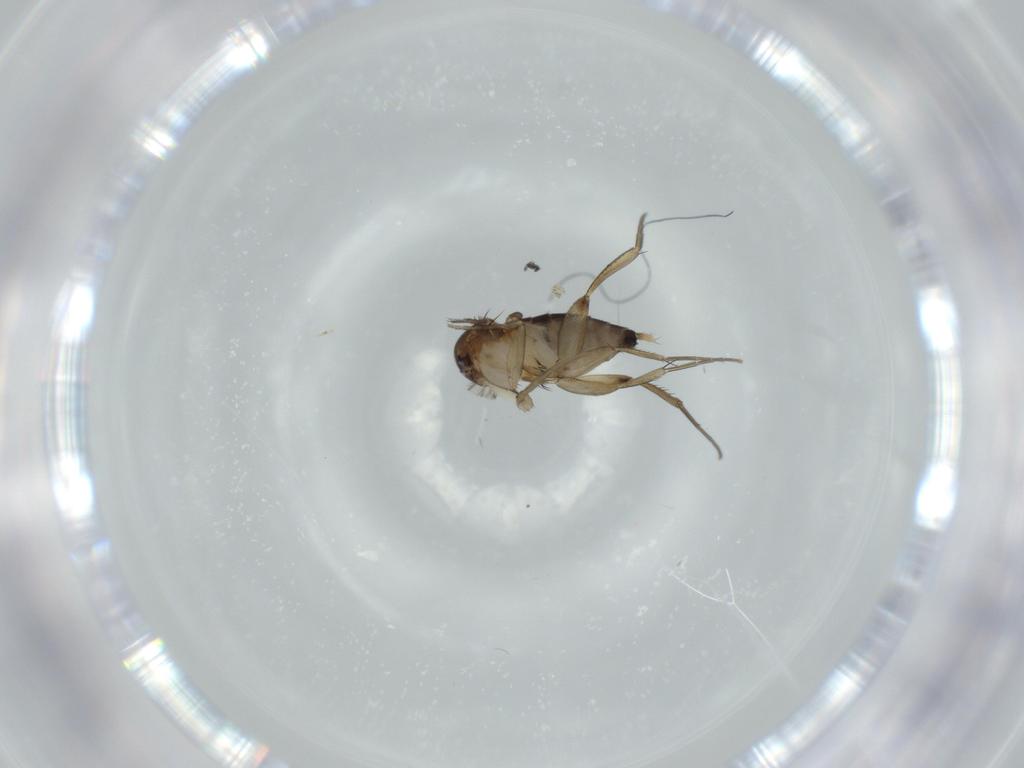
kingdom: Animalia
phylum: Arthropoda
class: Insecta
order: Diptera
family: Phoridae
